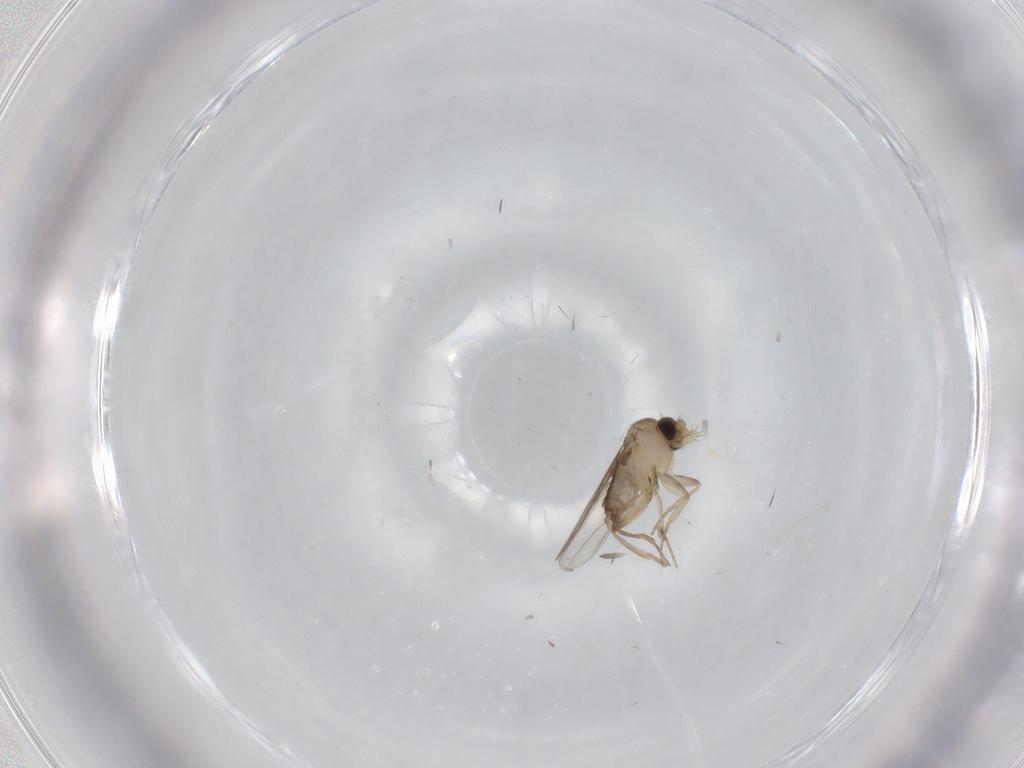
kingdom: Animalia
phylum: Arthropoda
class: Insecta
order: Diptera
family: Phoridae
